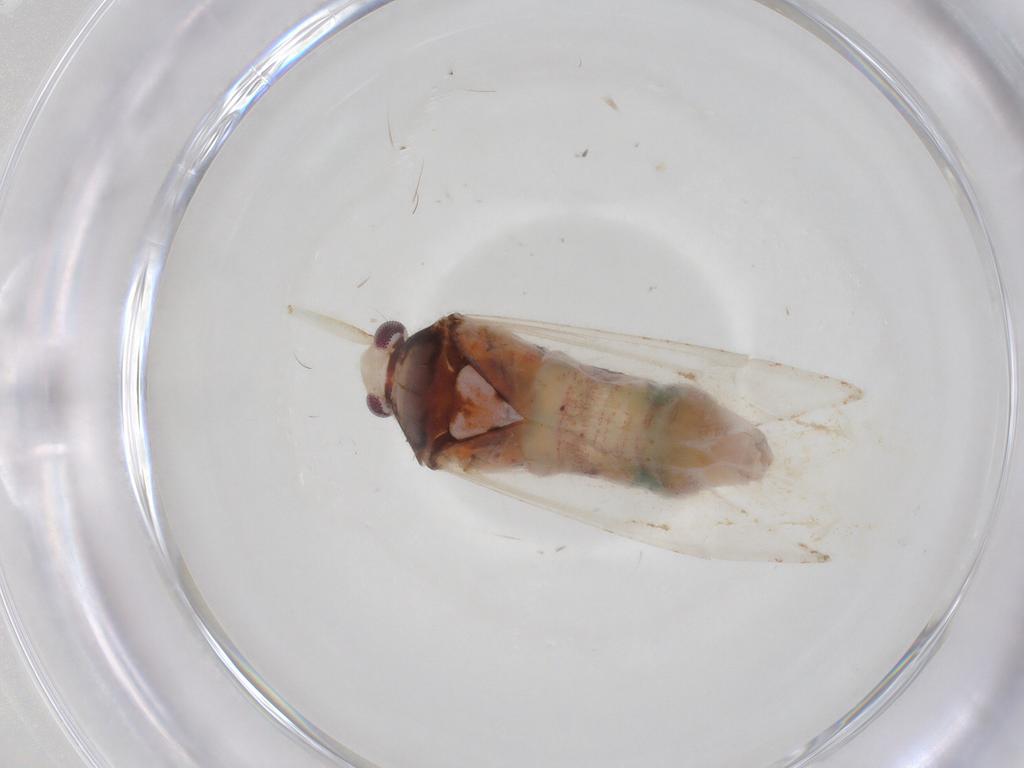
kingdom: Animalia
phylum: Arthropoda
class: Insecta
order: Hemiptera
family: Miridae
